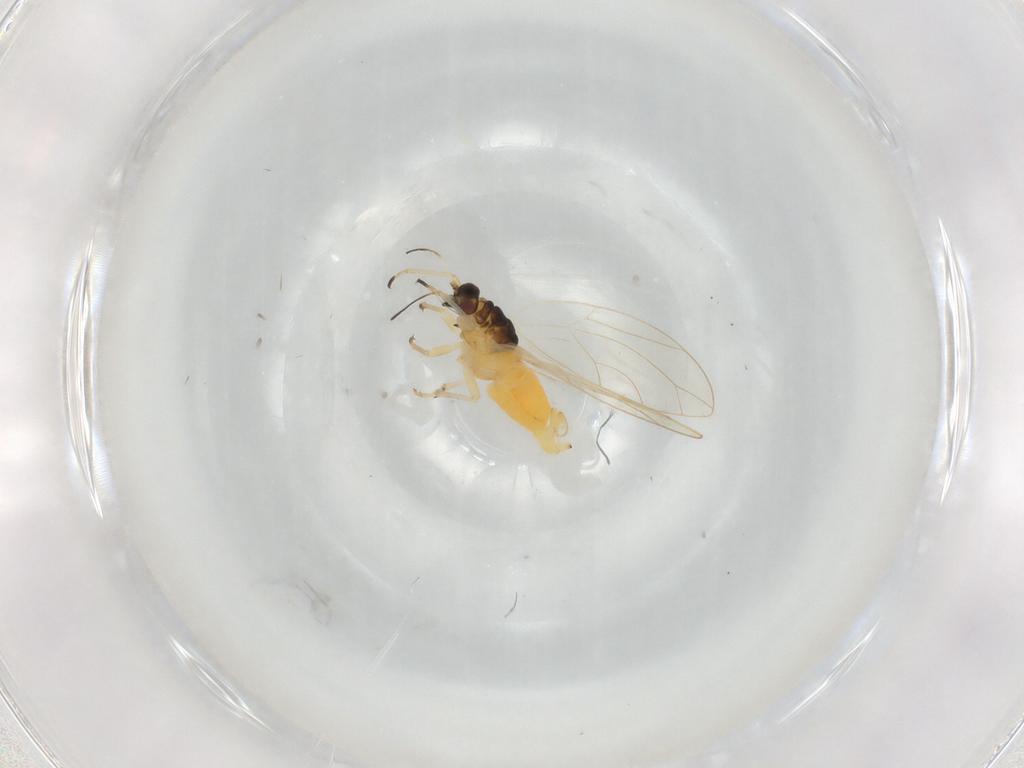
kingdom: Animalia
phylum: Arthropoda
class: Insecta
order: Hemiptera
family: Triozidae
